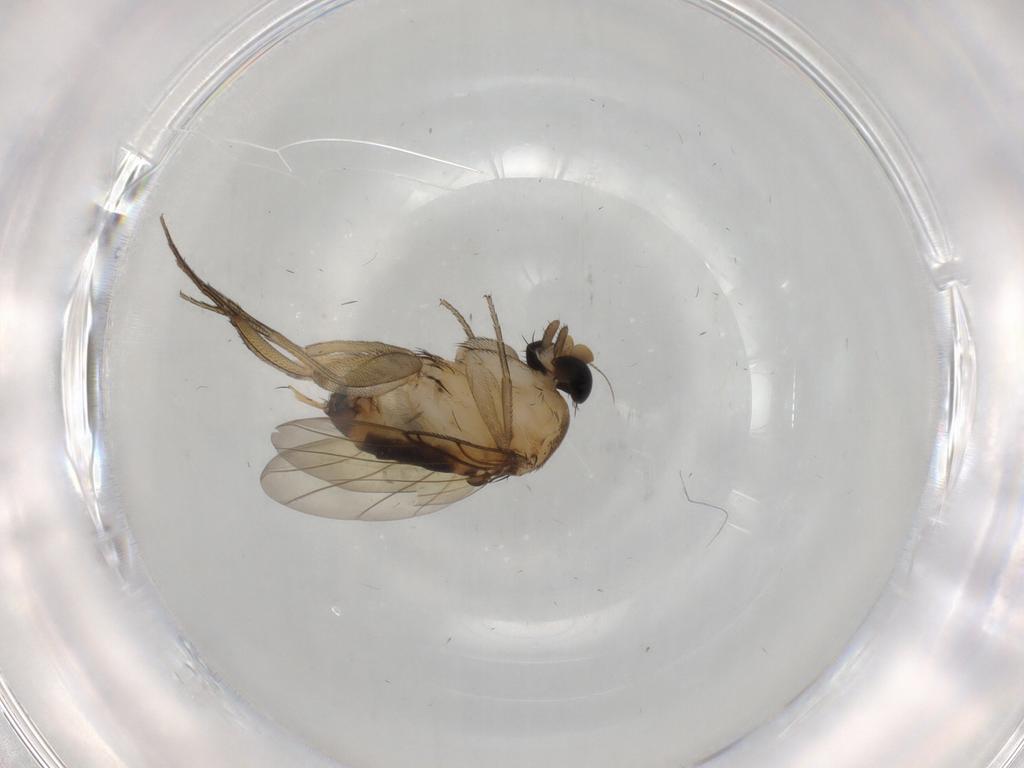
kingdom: Animalia
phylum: Arthropoda
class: Insecta
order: Diptera
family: Phoridae
